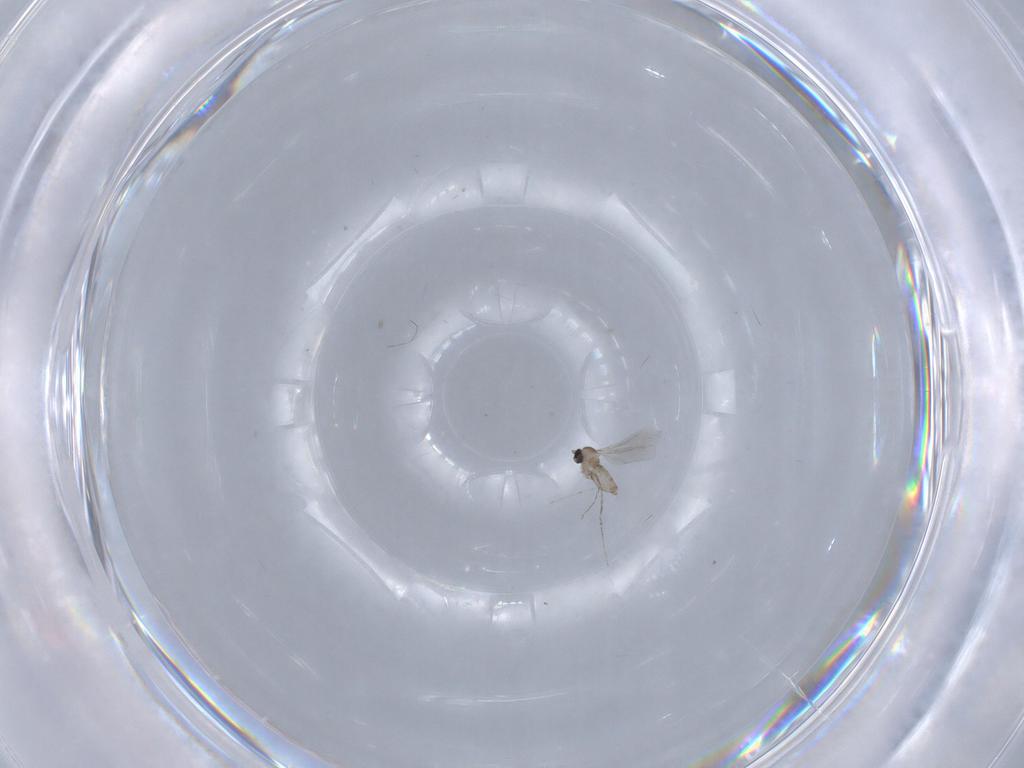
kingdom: Animalia
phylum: Arthropoda
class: Insecta
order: Diptera
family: Cecidomyiidae
